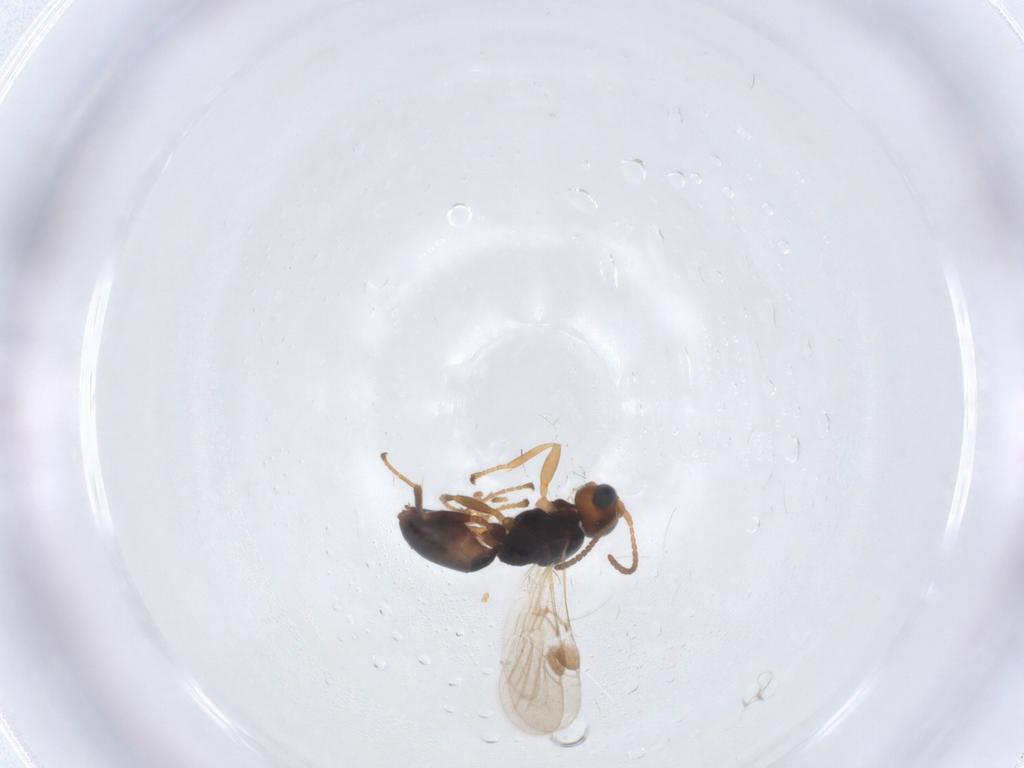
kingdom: Animalia
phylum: Arthropoda
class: Insecta
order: Hymenoptera
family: Braconidae
